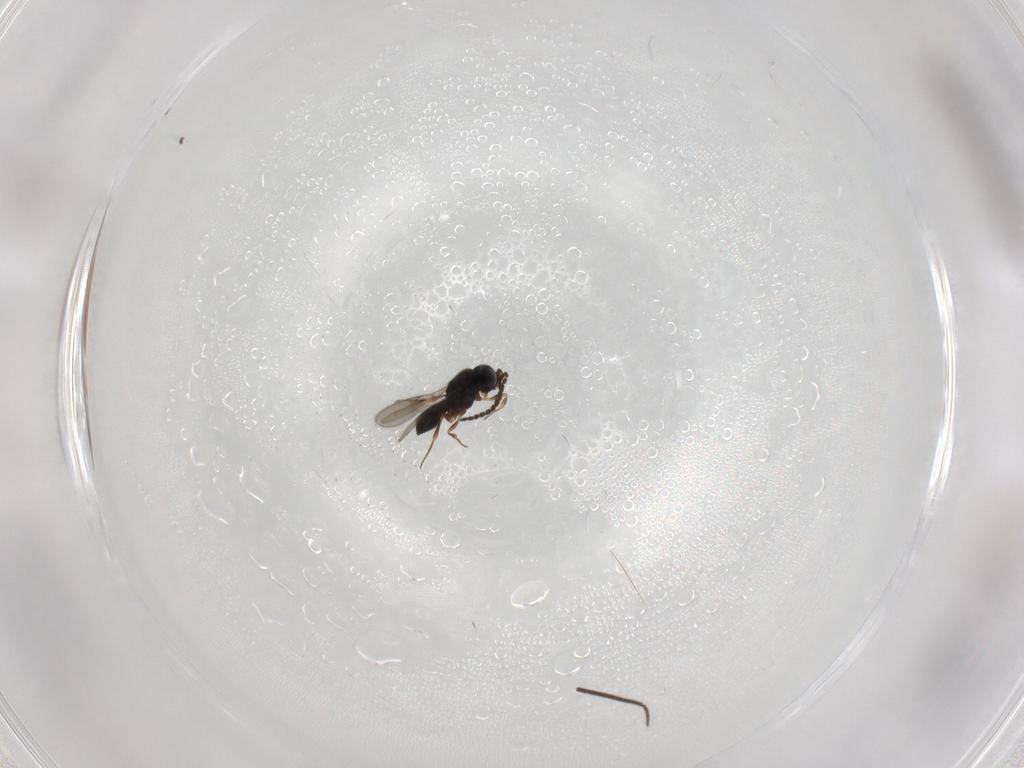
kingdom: Animalia
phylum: Arthropoda
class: Insecta
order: Hymenoptera
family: Scelionidae
